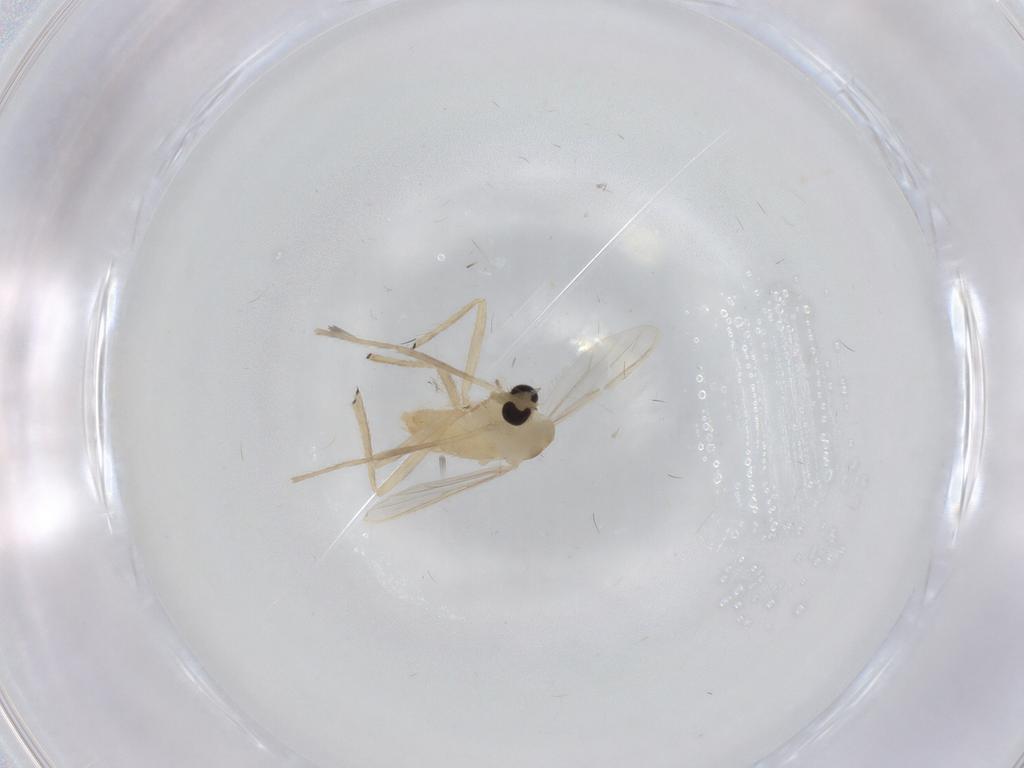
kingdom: Animalia
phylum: Arthropoda
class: Insecta
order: Diptera
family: Chironomidae
